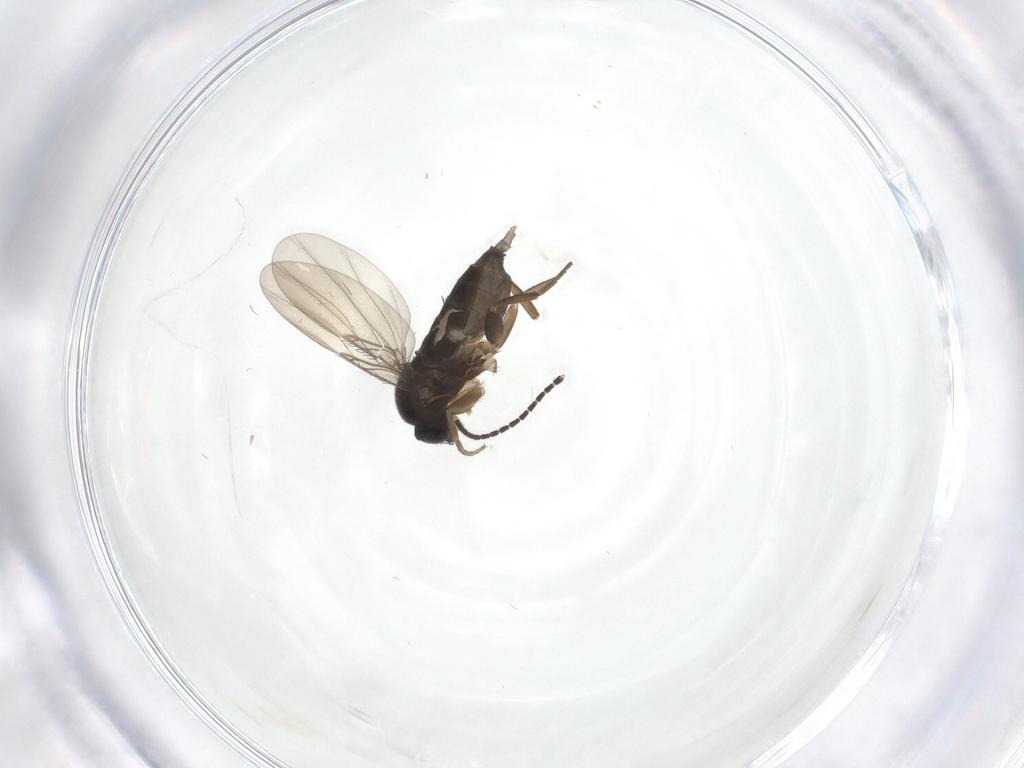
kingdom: Animalia
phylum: Arthropoda
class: Insecta
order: Diptera
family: Phoridae
